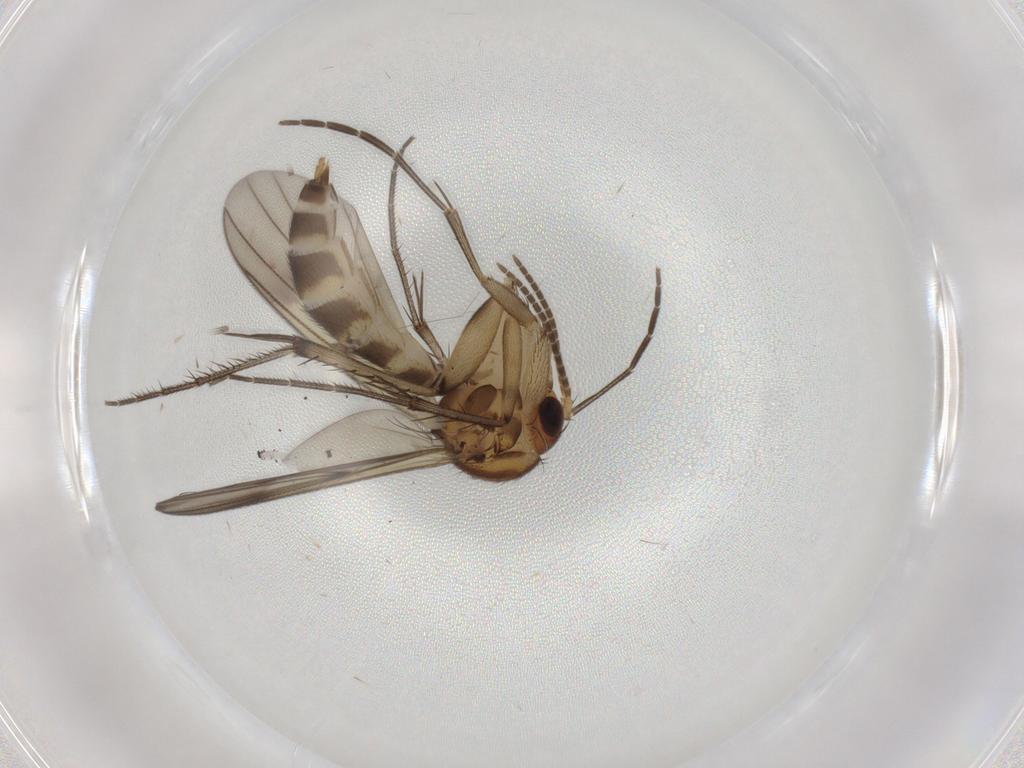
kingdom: Animalia
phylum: Arthropoda
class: Insecta
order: Diptera
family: Mycetophilidae
